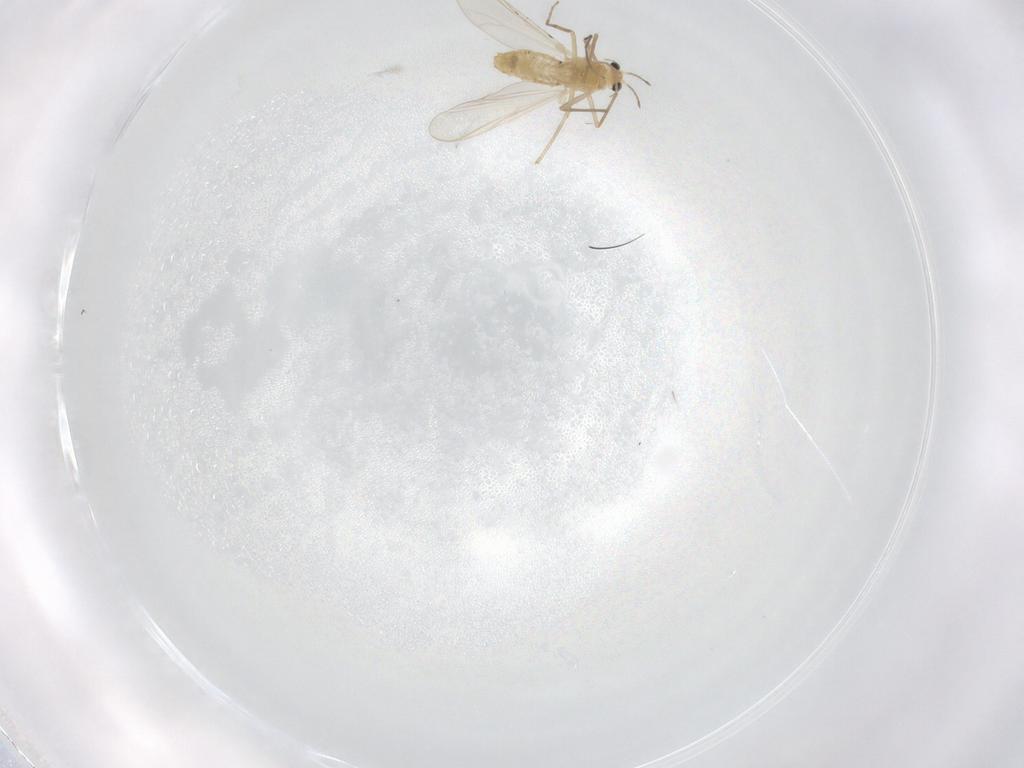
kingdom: Animalia
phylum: Arthropoda
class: Insecta
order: Diptera
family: Chironomidae
